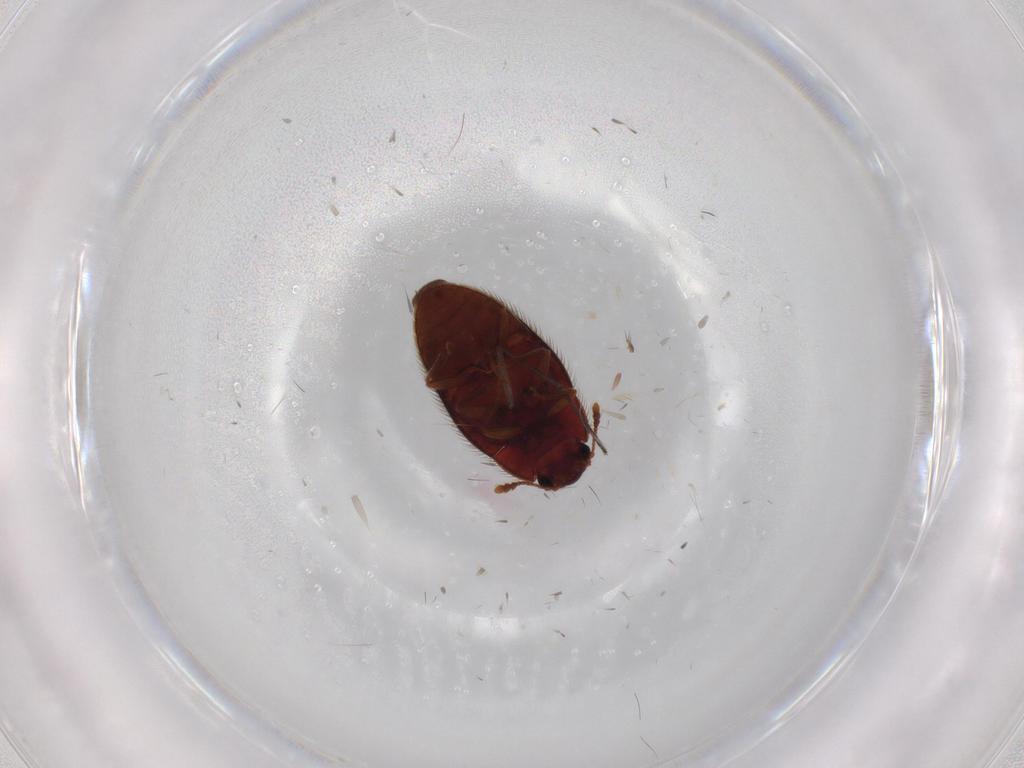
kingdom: Animalia
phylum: Arthropoda
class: Insecta
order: Coleoptera
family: Biphyllidae
